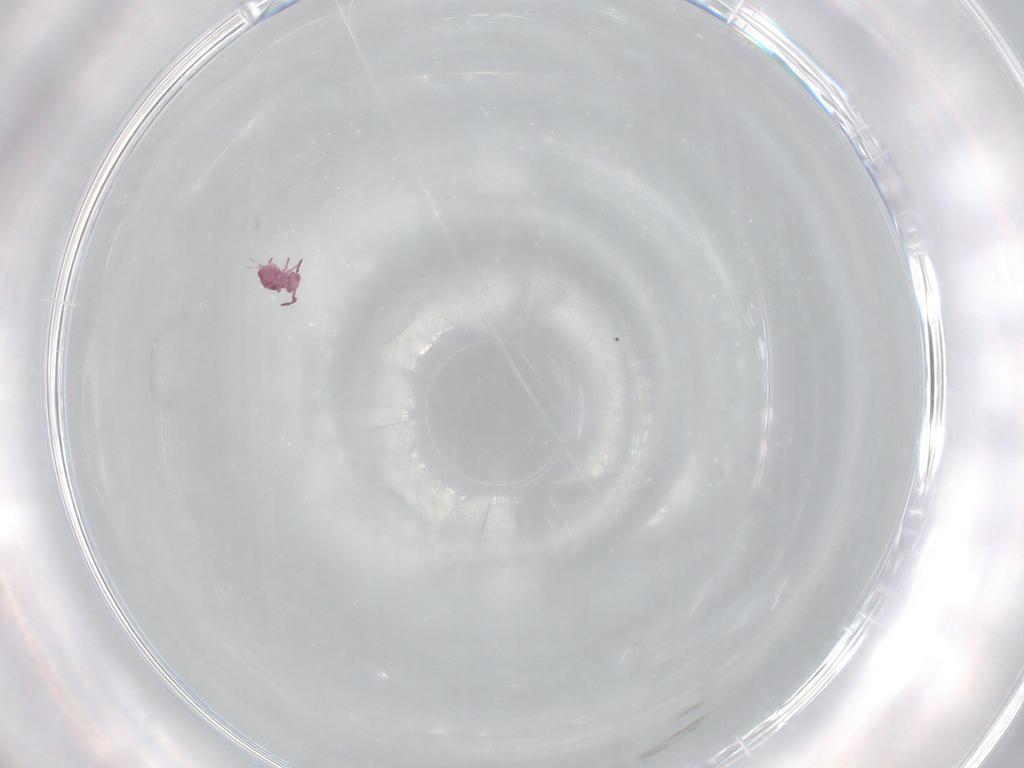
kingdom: Animalia
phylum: Arthropoda
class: Collembola
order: Symphypleona
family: Sminthurididae
